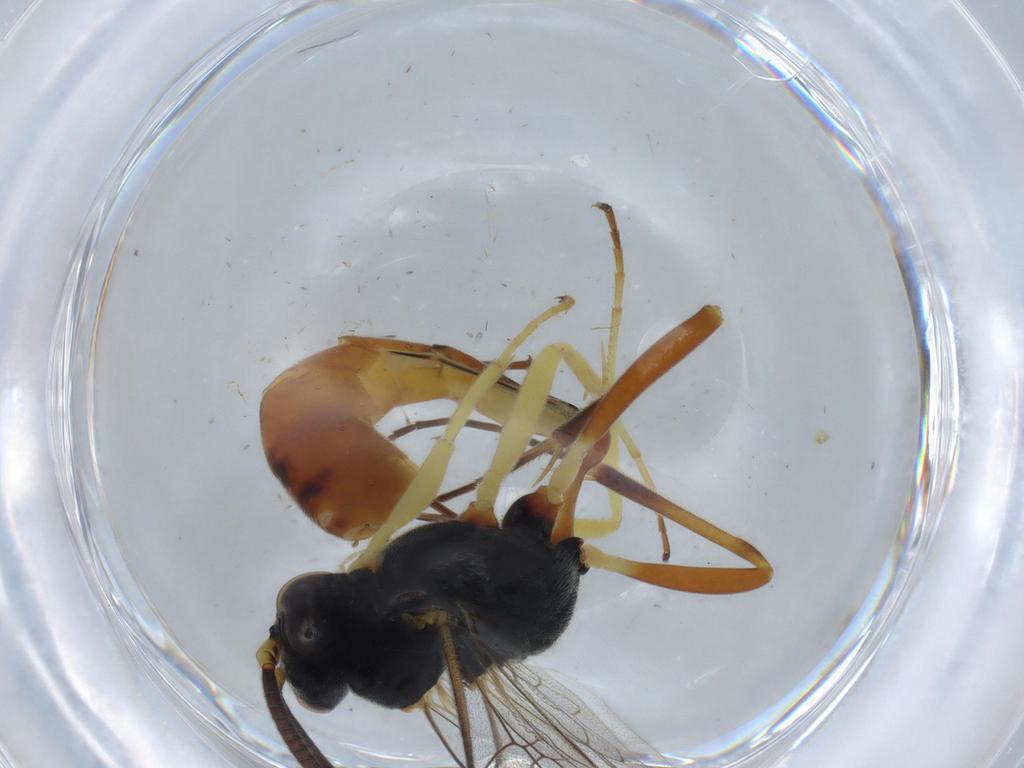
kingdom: Animalia
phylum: Arthropoda
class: Insecta
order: Hymenoptera
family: Ichneumonidae
